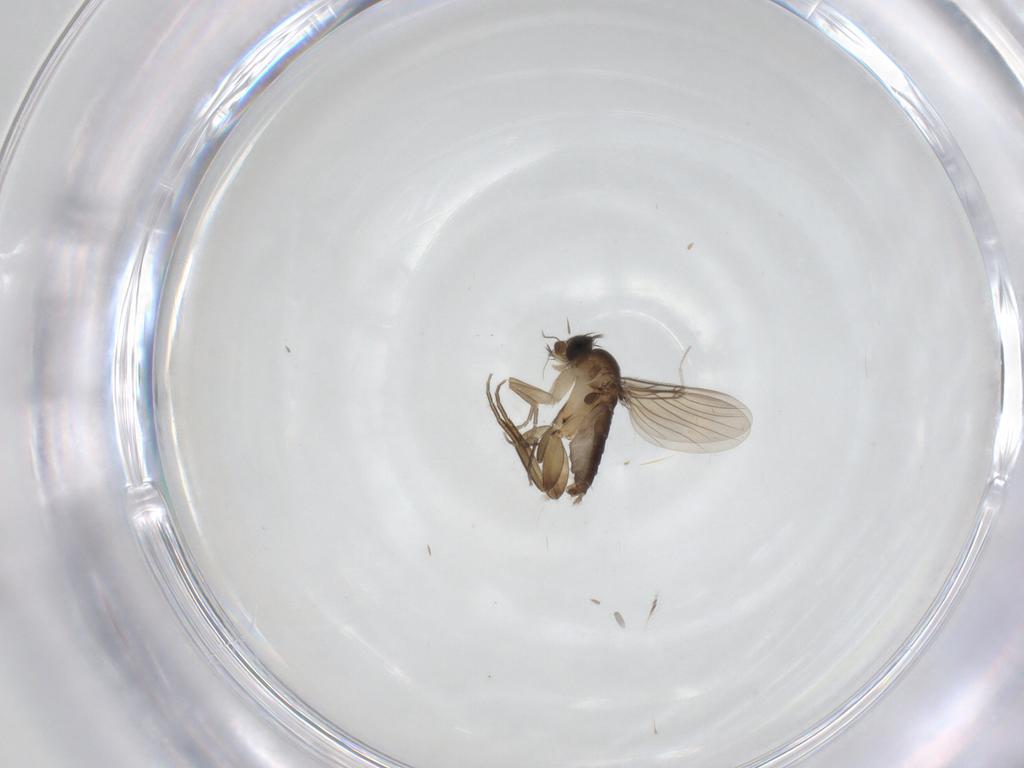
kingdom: Animalia
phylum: Arthropoda
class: Insecta
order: Diptera
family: Phoridae
